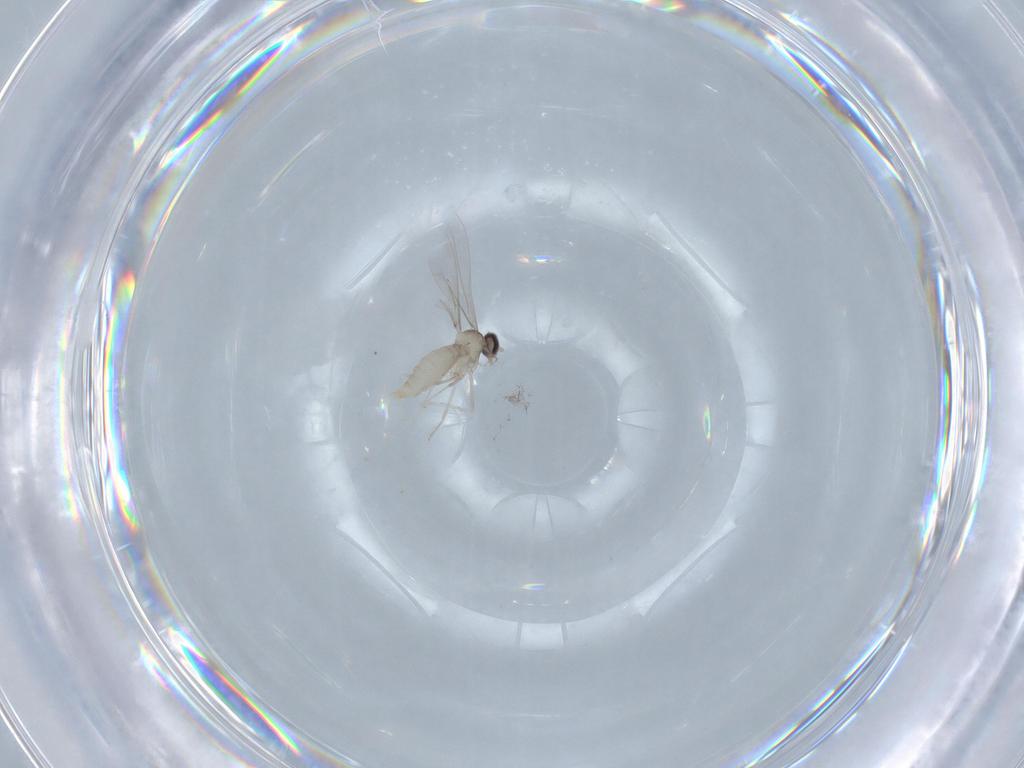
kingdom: Animalia
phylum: Arthropoda
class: Insecta
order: Diptera
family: Cecidomyiidae
